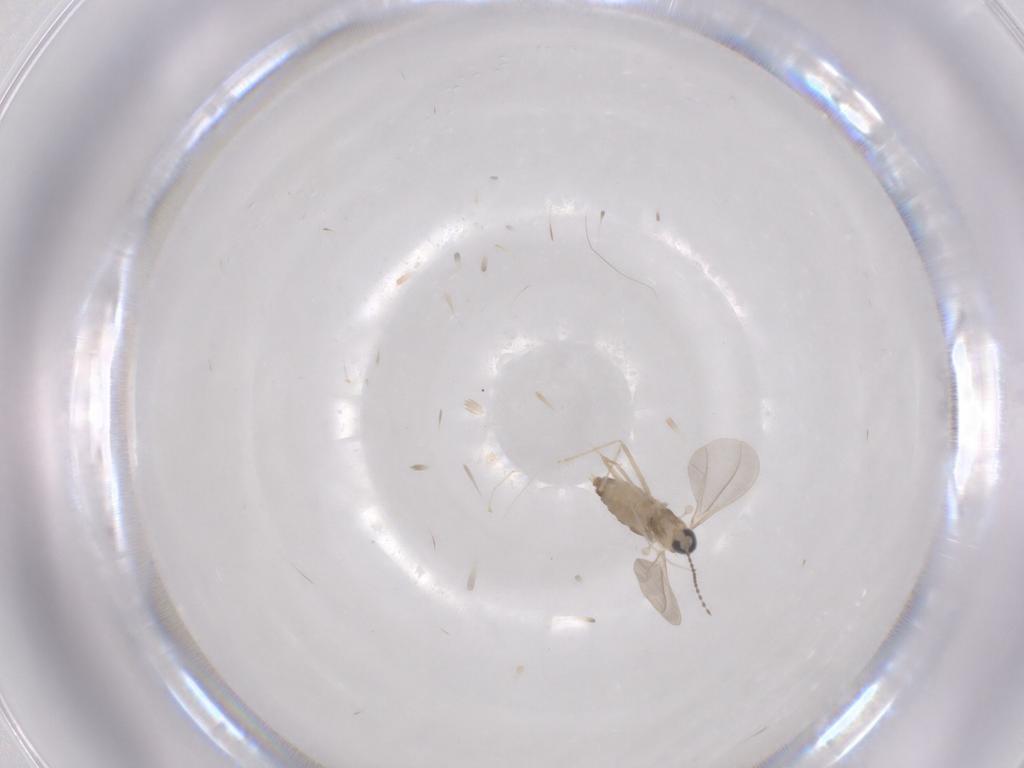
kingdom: Animalia
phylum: Arthropoda
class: Insecta
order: Diptera
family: Cecidomyiidae
